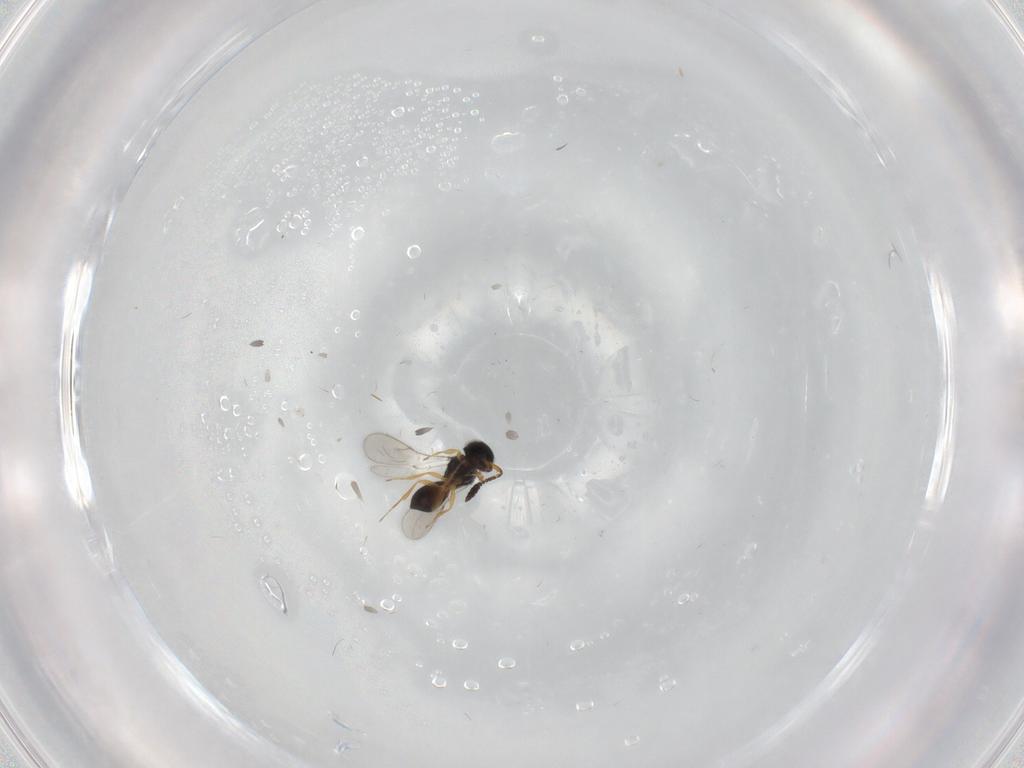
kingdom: Animalia
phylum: Arthropoda
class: Insecta
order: Hymenoptera
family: Scelionidae
